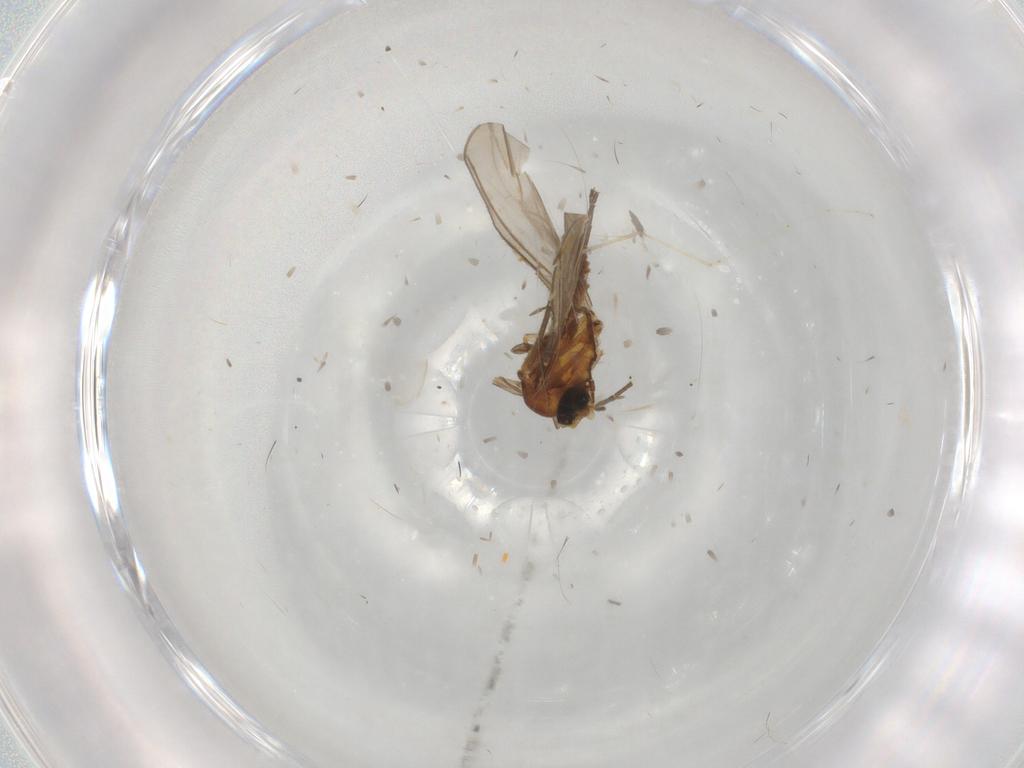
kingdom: Animalia
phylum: Arthropoda
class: Insecta
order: Diptera
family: Sciaridae
